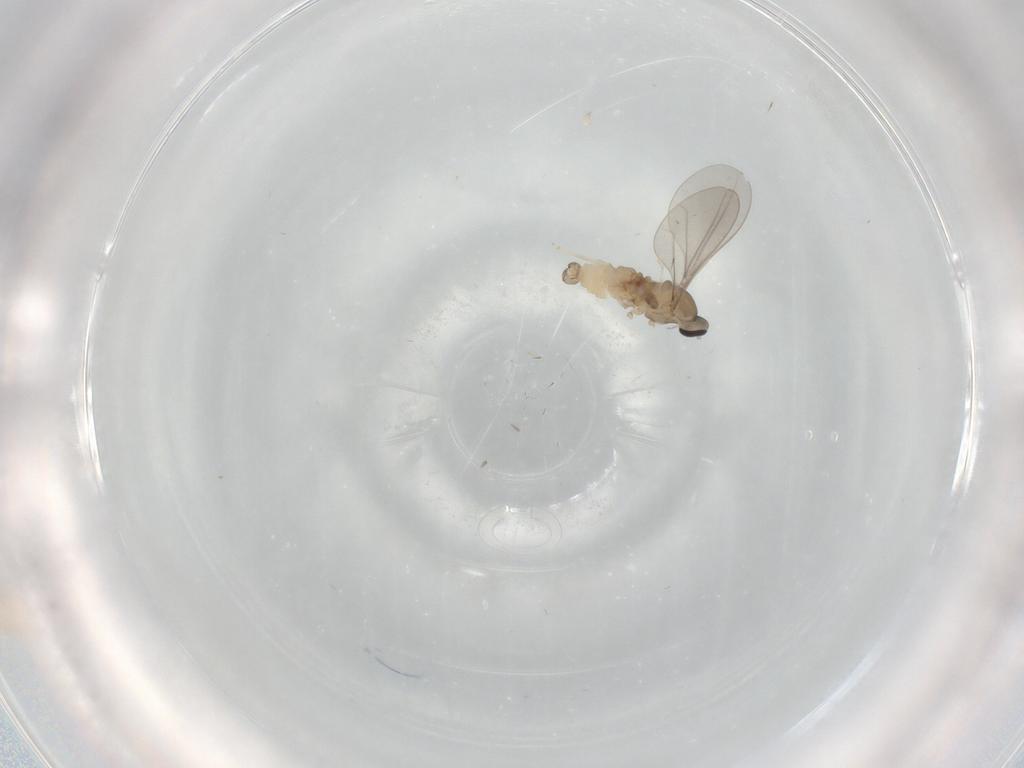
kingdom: Animalia
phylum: Arthropoda
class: Insecta
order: Diptera
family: Cecidomyiidae
